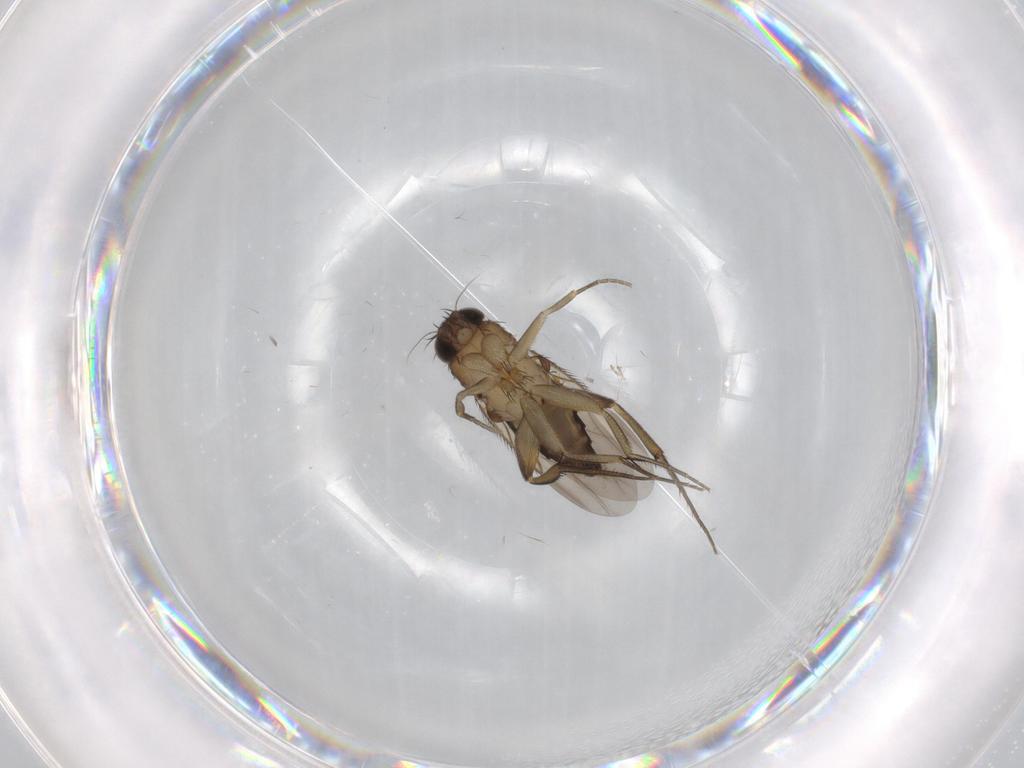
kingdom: Animalia
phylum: Arthropoda
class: Insecta
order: Diptera
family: Phoridae
